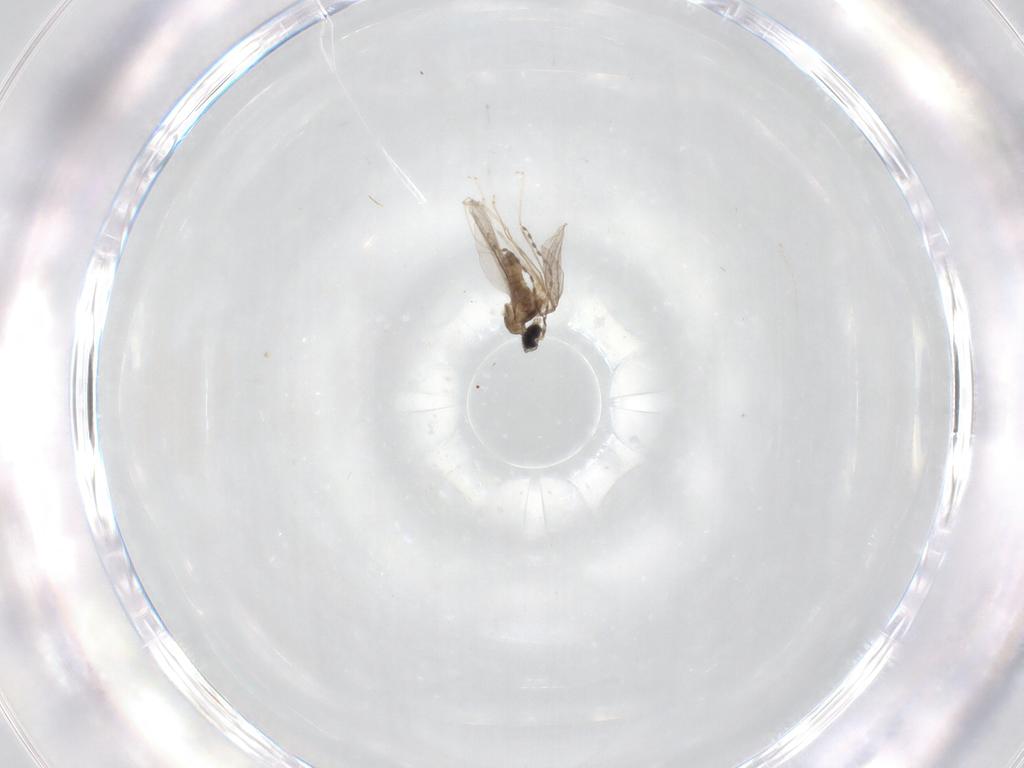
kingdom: Animalia
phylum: Arthropoda
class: Insecta
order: Diptera
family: Cecidomyiidae
